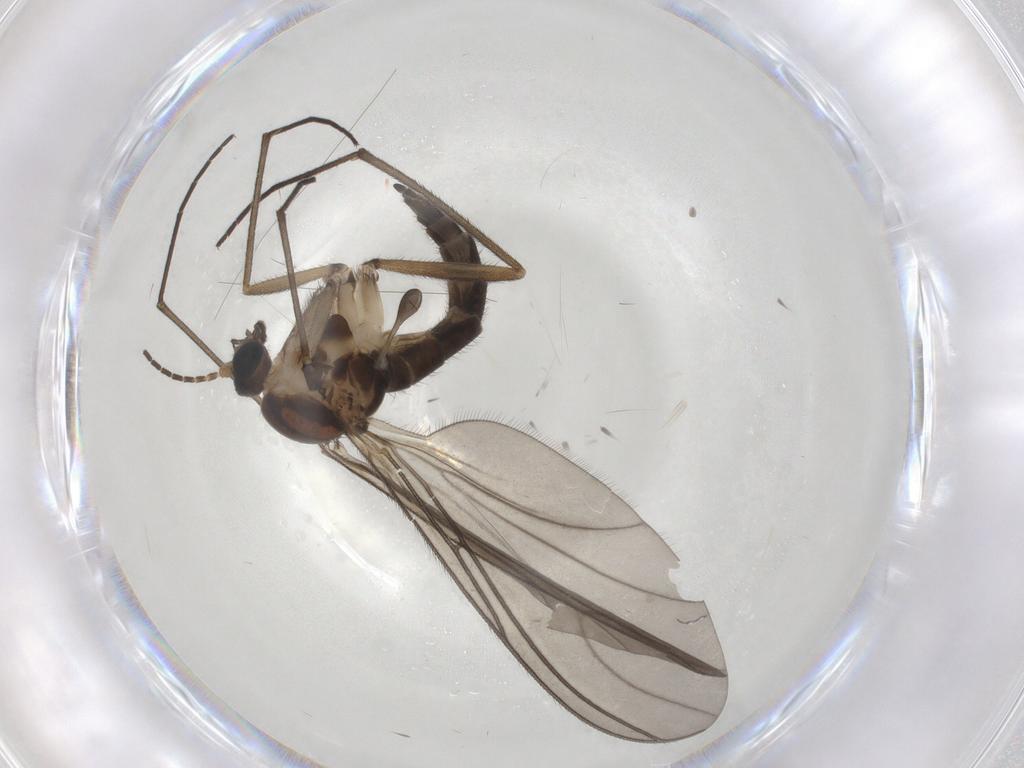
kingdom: Animalia
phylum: Arthropoda
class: Insecta
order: Diptera
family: Sciaridae
